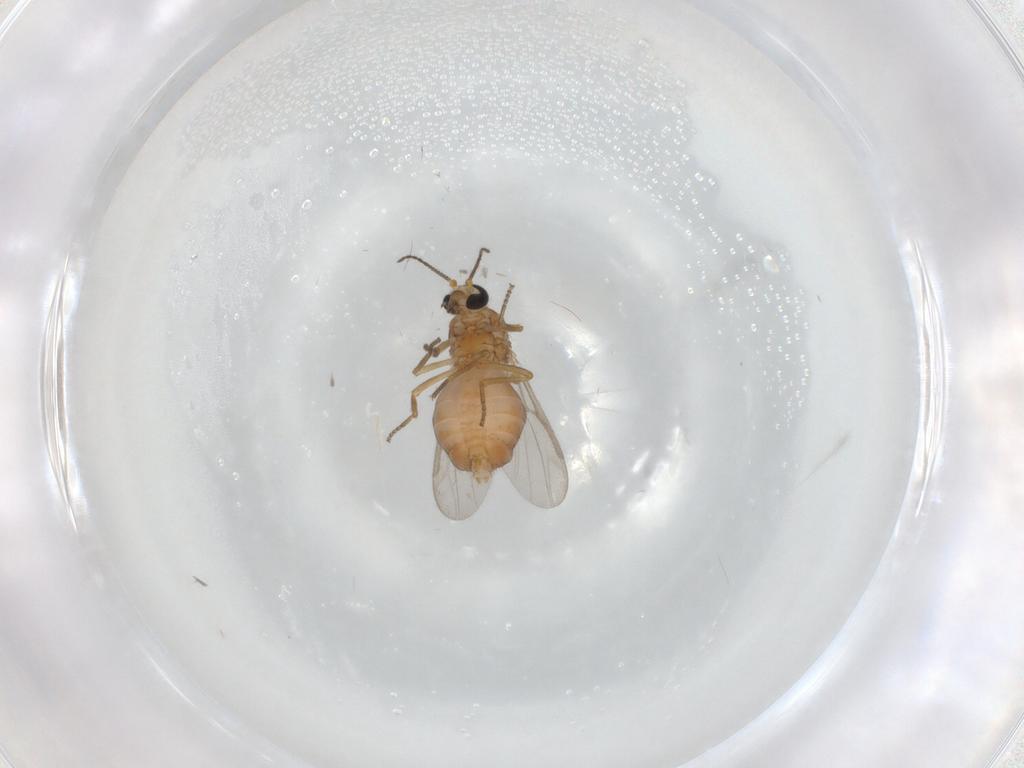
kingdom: Animalia
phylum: Arthropoda
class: Insecta
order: Diptera
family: Ceratopogonidae
